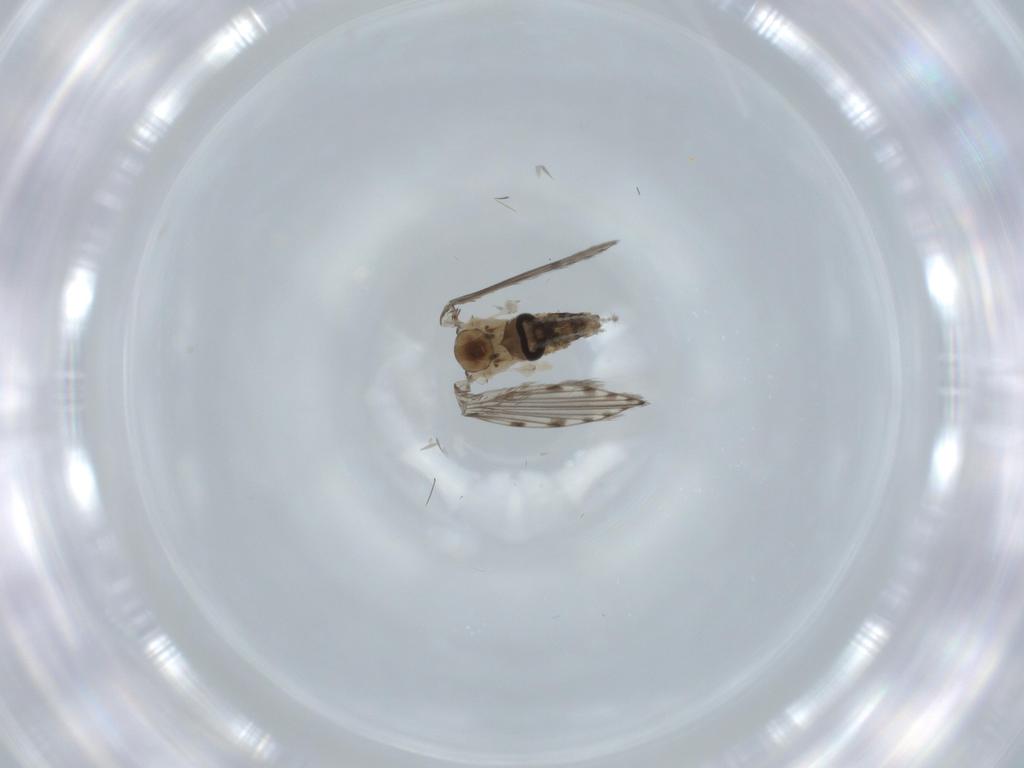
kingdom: Animalia
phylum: Arthropoda
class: Insecta
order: Diptera
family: Psychodidae
